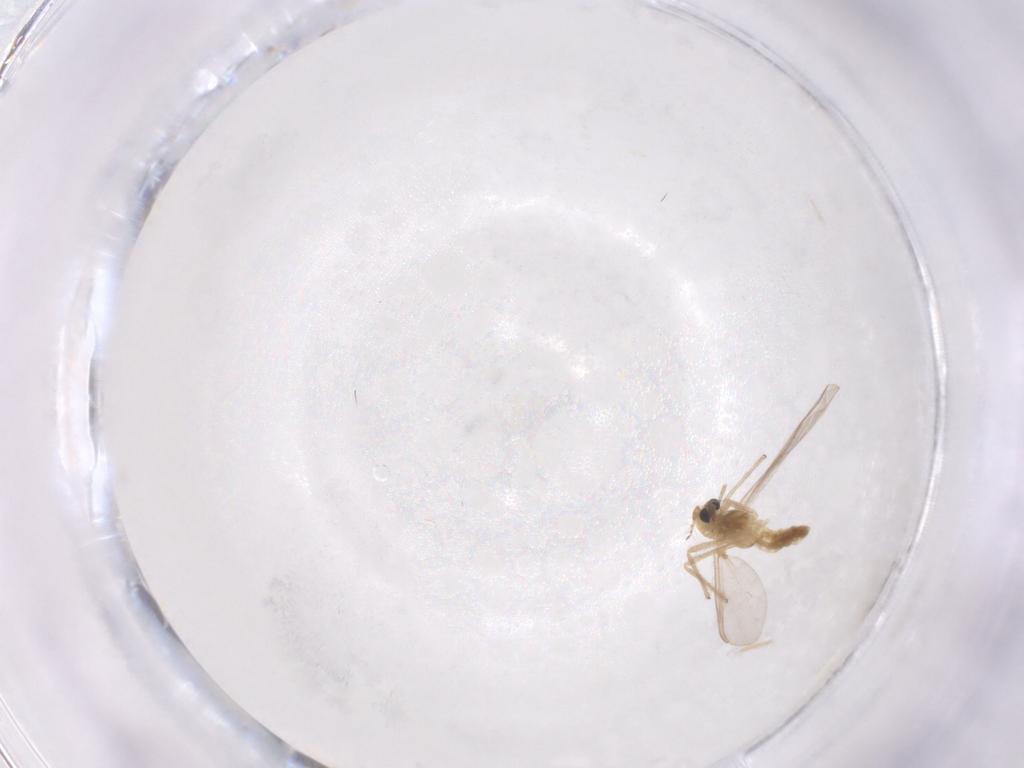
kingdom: Animalia
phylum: Arthropoda
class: Insecta
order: Diptera
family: Chironomidae
